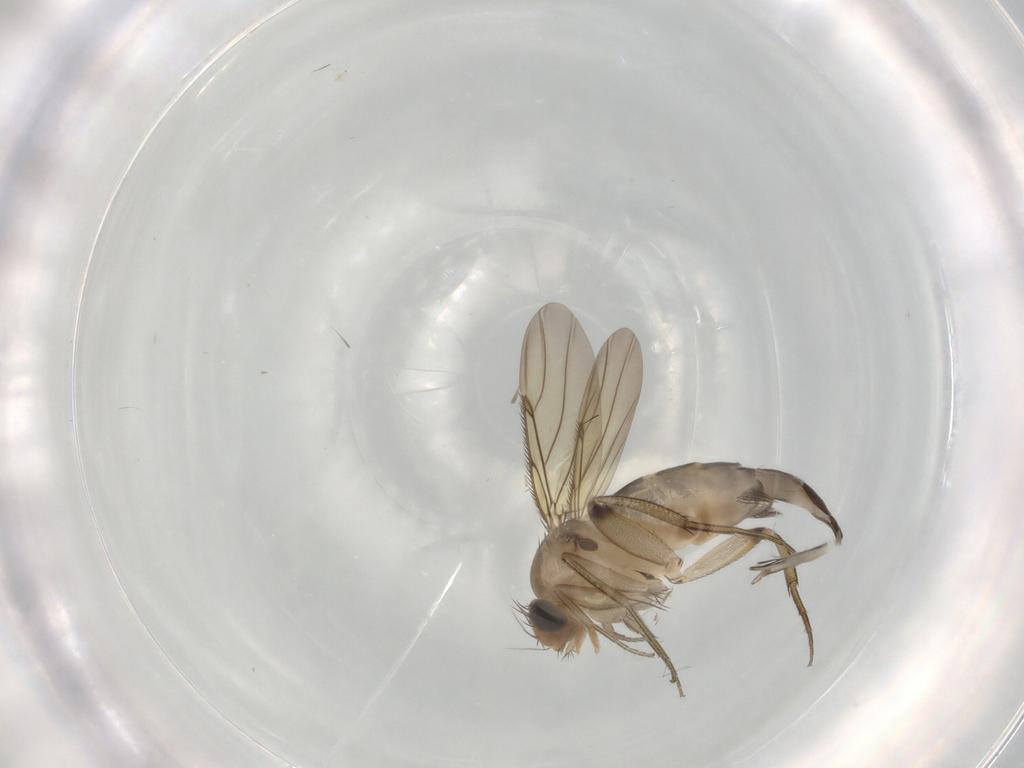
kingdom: Animalia
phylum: Arthropoda
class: Insecta
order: Diptera
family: Phoridae
